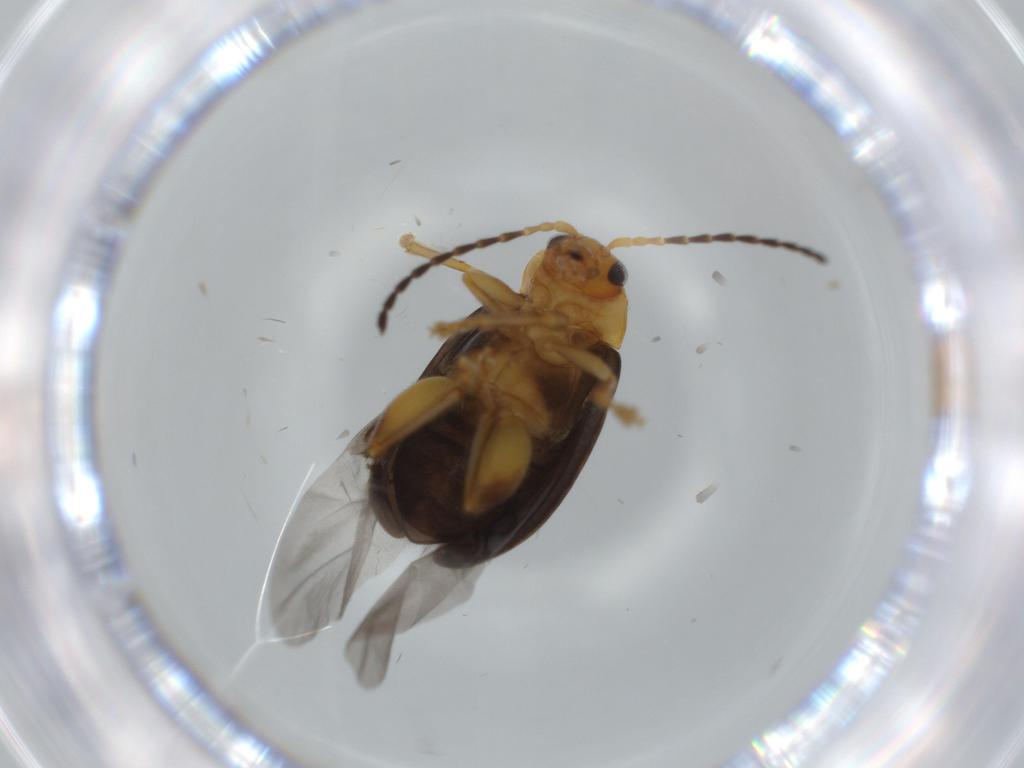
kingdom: Animalia
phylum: Arthropoda
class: Insecta
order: Coleoptera
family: Chrysomelidae
